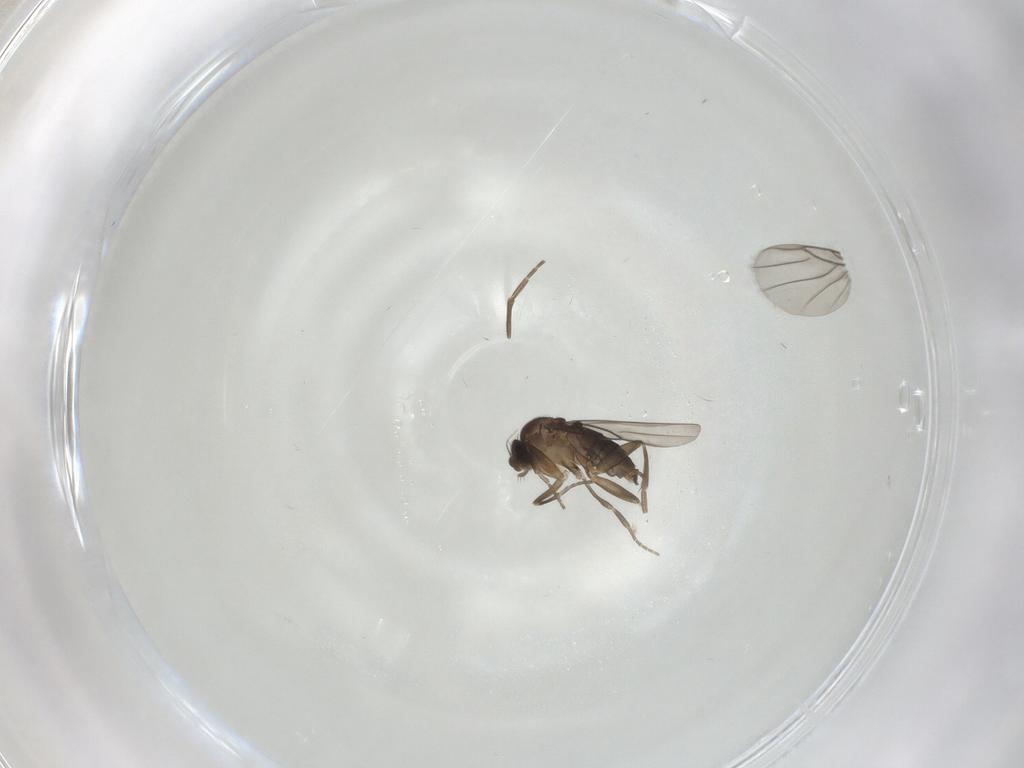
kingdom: Animalia
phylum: Arthropoda
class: Insecta
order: Diptera
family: Phoridae
